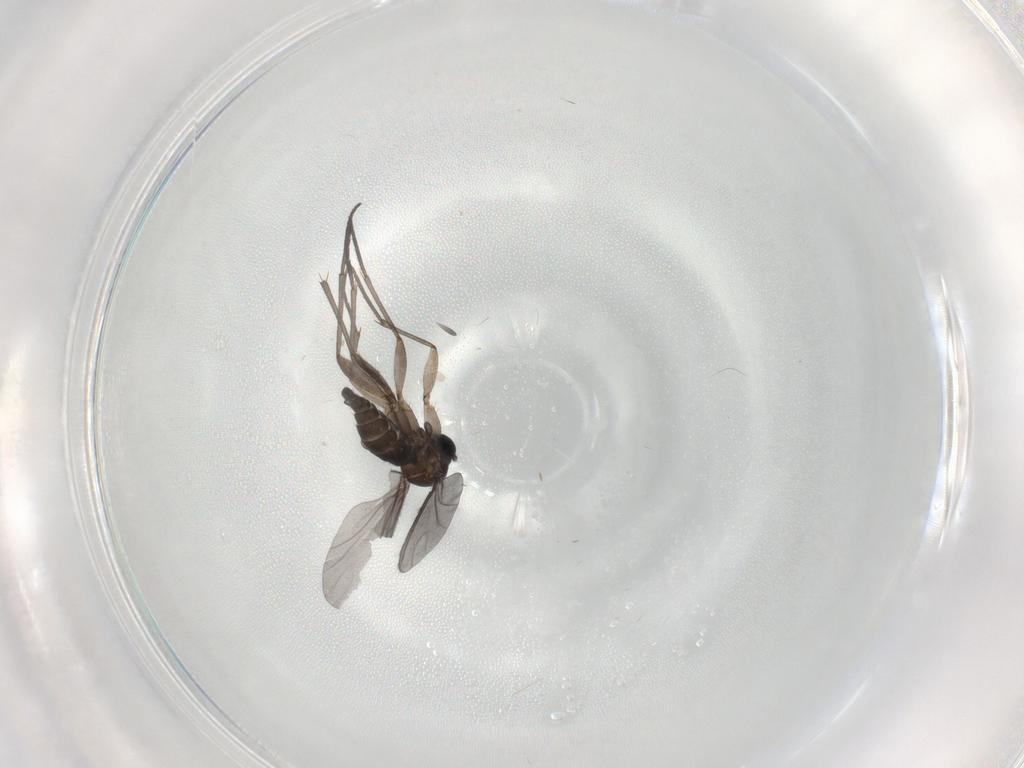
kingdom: Animalia
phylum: Arthropoda
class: Insecta
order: Diptera
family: Sciaridae
